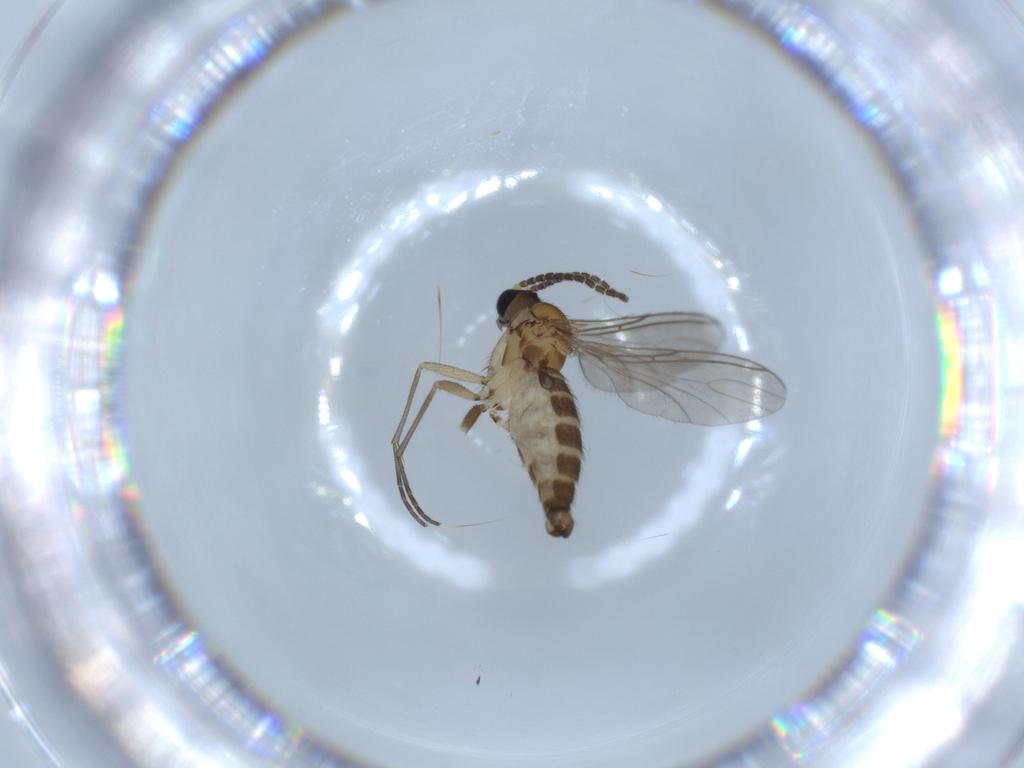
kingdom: Animalia
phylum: Arthropoda
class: Insecta
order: Diptera
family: Sciaridae
